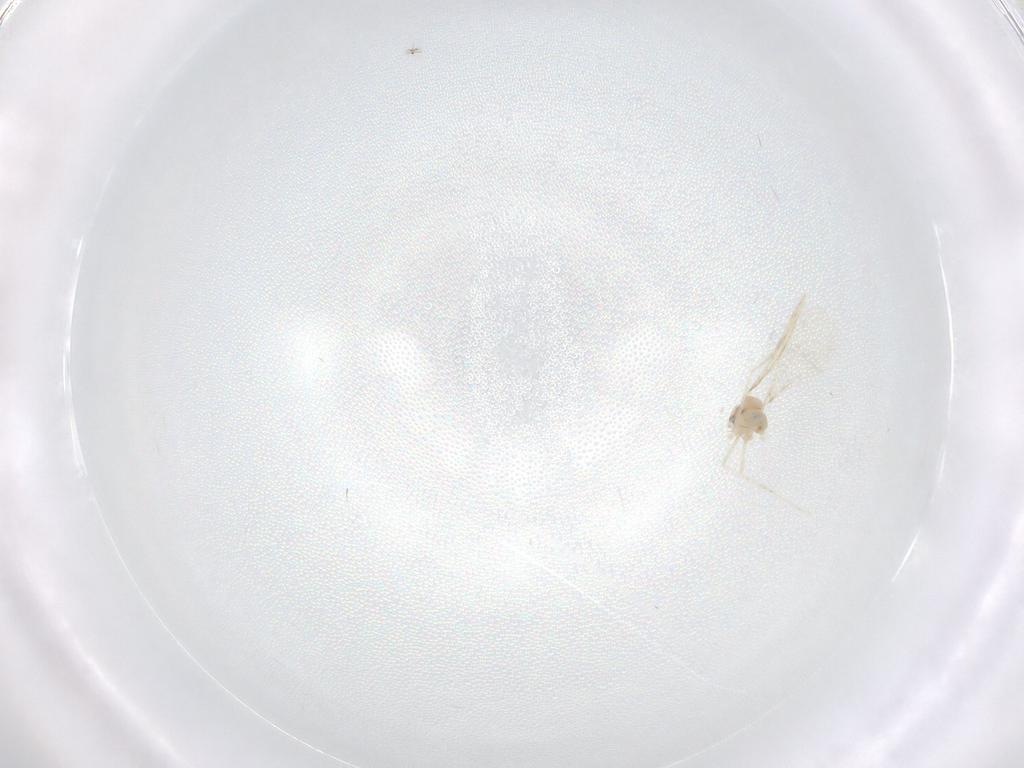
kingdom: Animalia
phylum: Arthropoda
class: Insecta
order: Diptera
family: Cecidomyiidae
